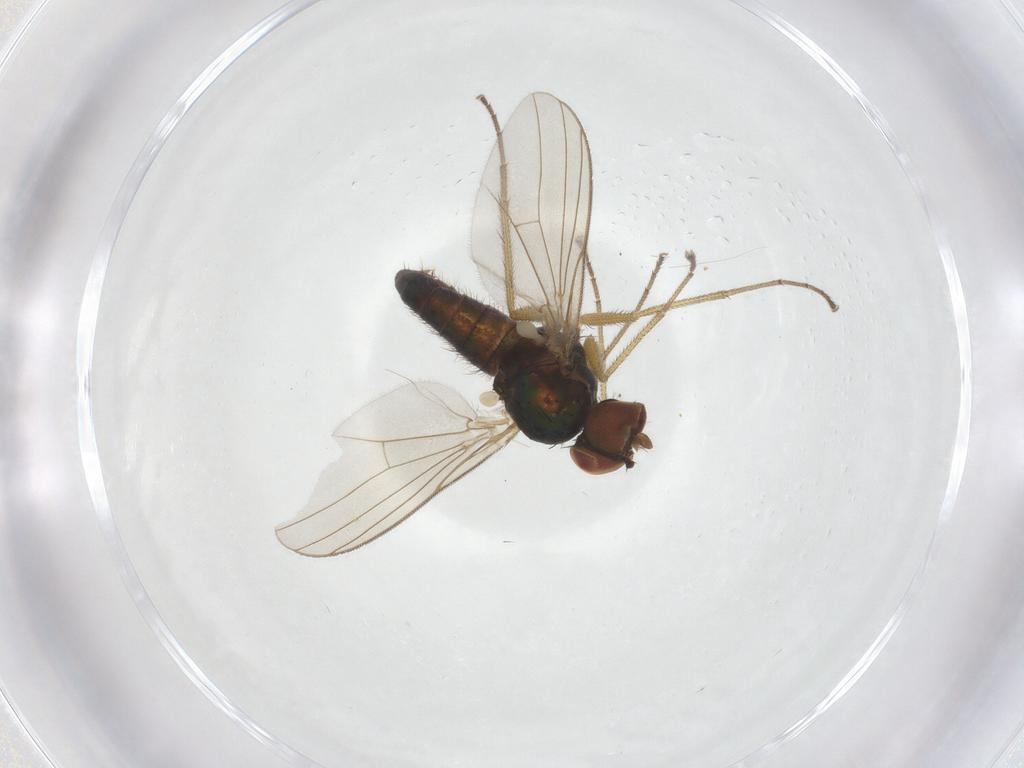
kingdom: Animalia
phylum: Arthropoda
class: Insecta
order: Diptera
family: Dolichopodidae
